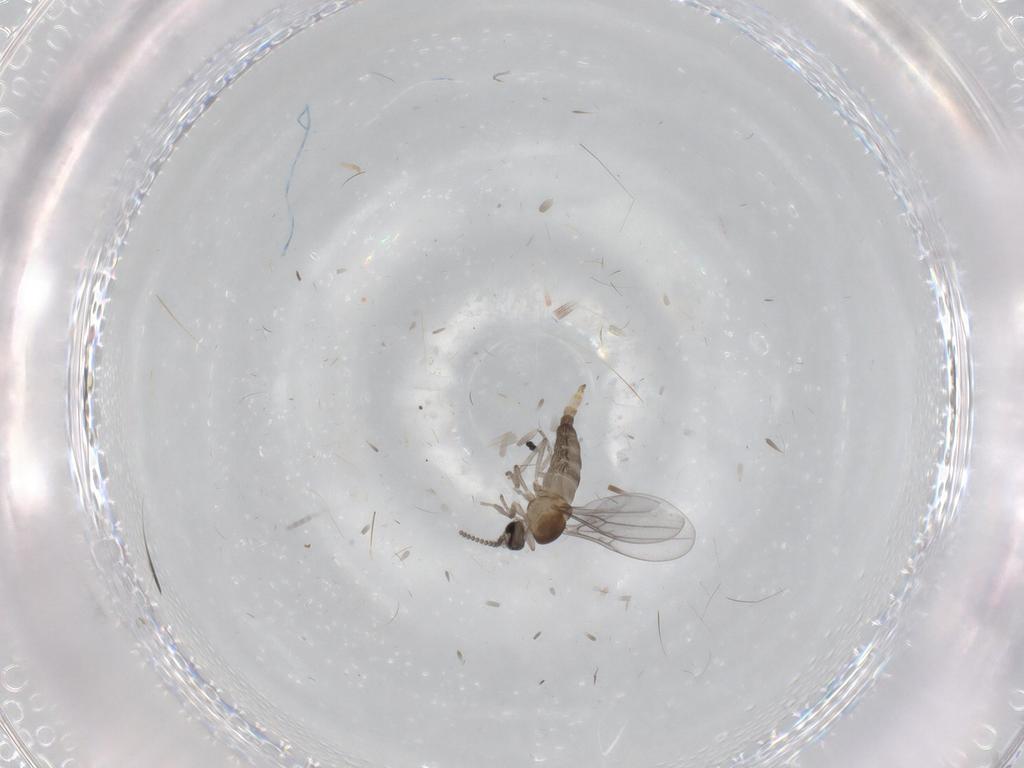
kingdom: Animalia
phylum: Arthropoda
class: Insecta
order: Diptera
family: Cecidomyiidae
